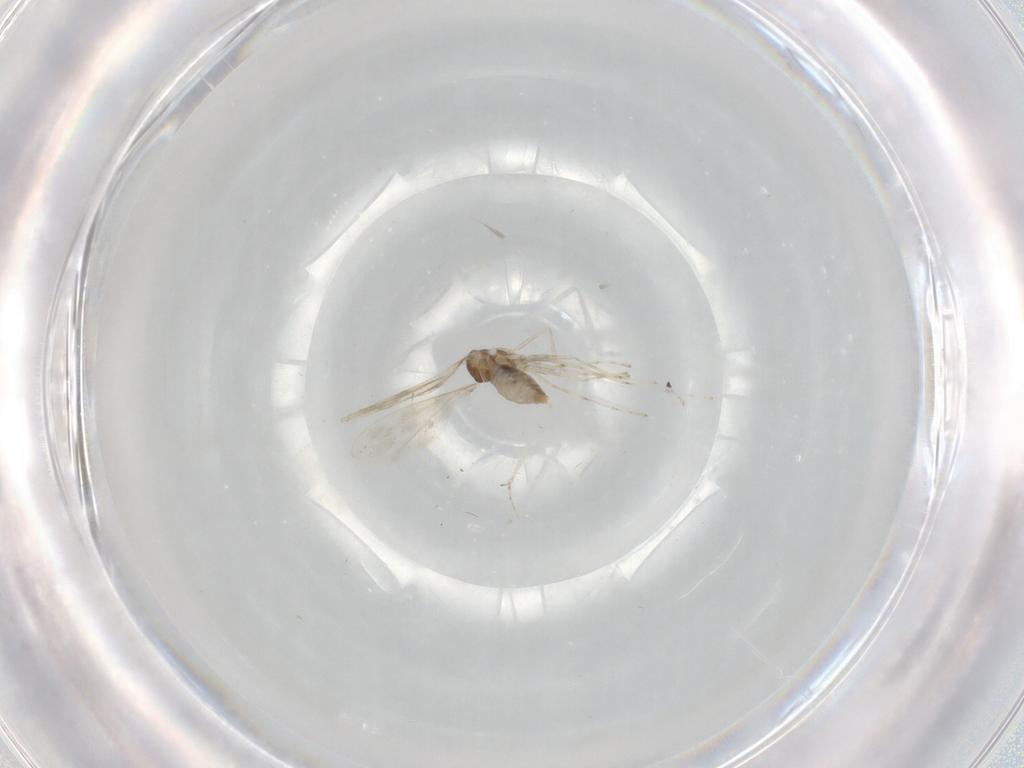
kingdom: Animalia
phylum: Arthropoda
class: Insecta
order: Diptera
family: Cecidomyiidae
